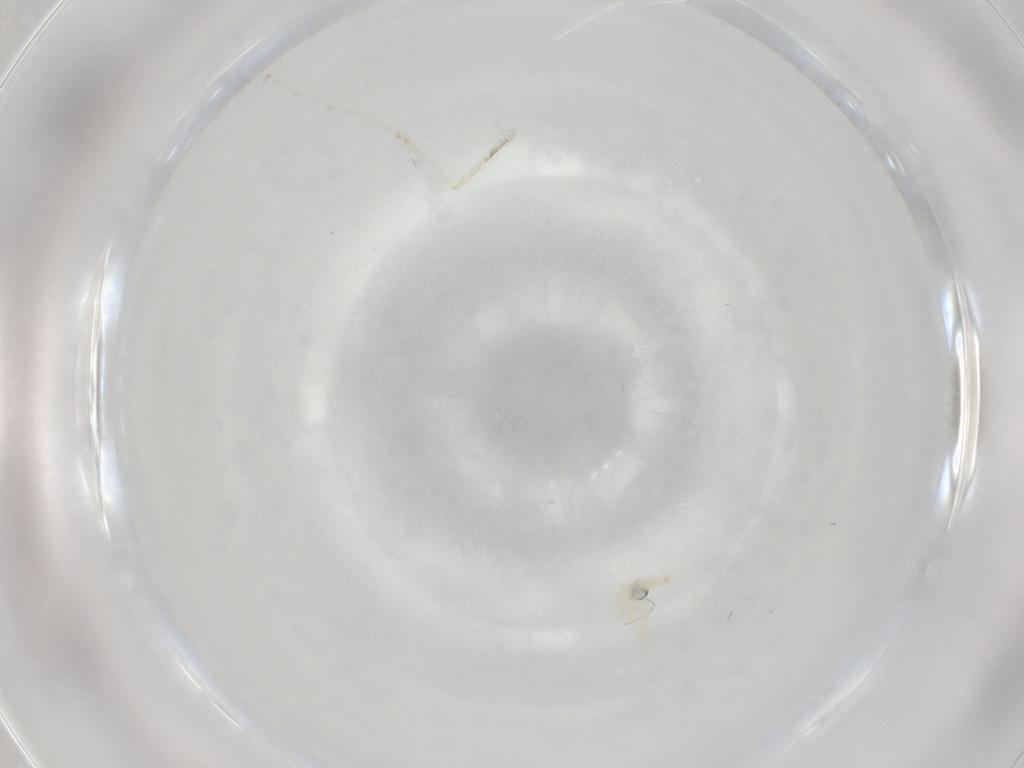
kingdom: Animalia
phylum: Arthropoda
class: Insecta
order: Diptera
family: Cecidomyiidae
